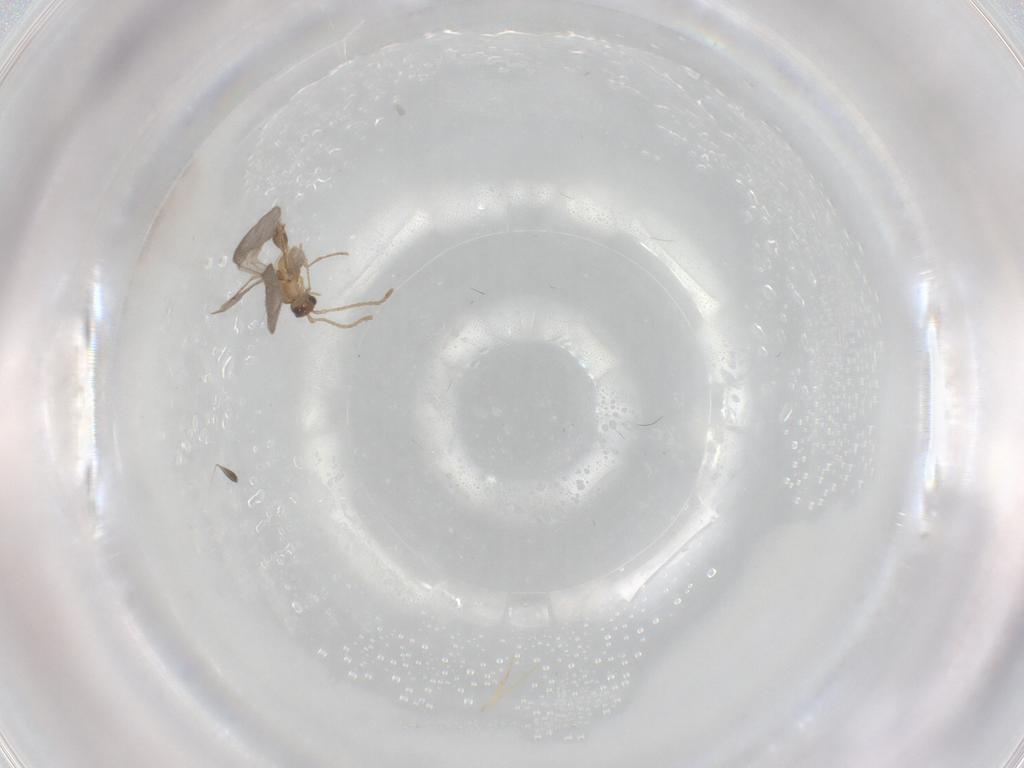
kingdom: Animalia
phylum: Arthropoda
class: Insecta
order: Hymenoptera
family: Formicidae
